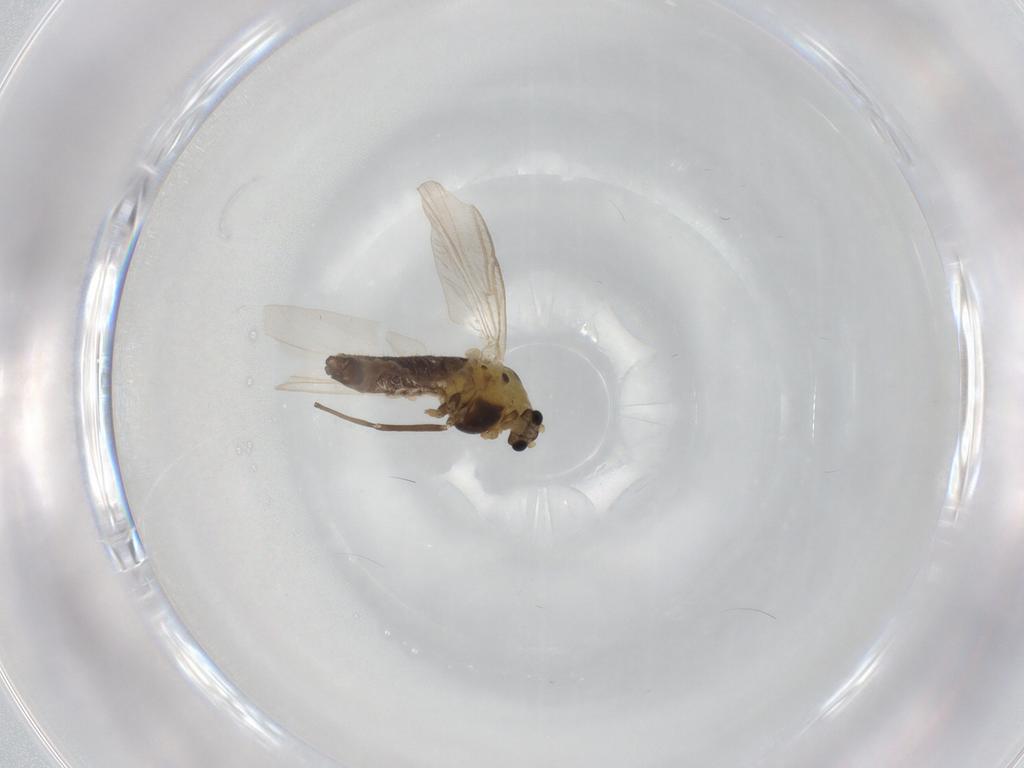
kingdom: Animalia
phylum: Arthropoda
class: Insecta
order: Diptera
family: Chironomidae
